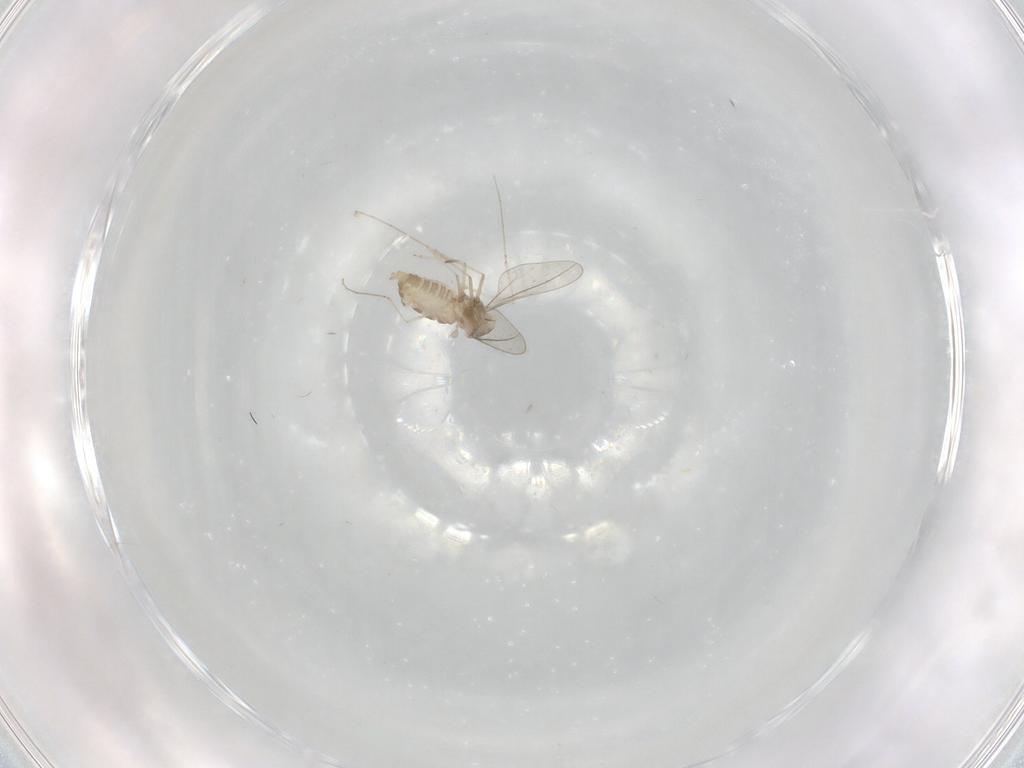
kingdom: Animalia
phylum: Arthropoda
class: Insecta
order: Diptera
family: Cecidomyiidae
